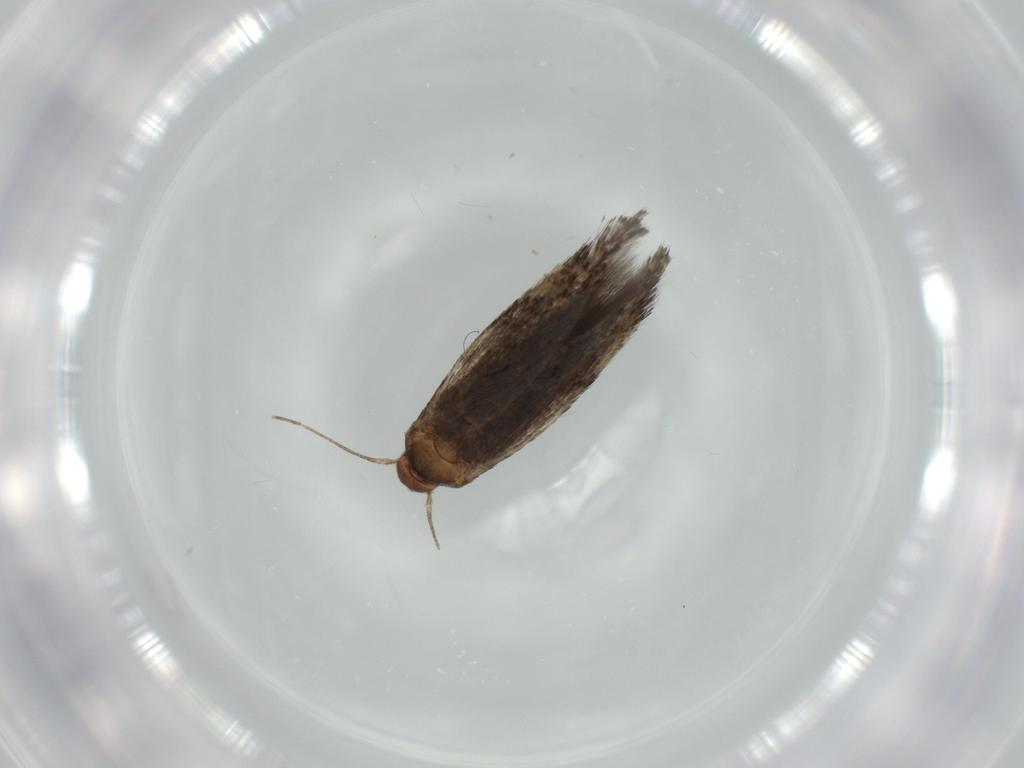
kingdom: Animalia
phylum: Arthropoda
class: Insecta
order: Lepidoptera
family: Gelechiidae
